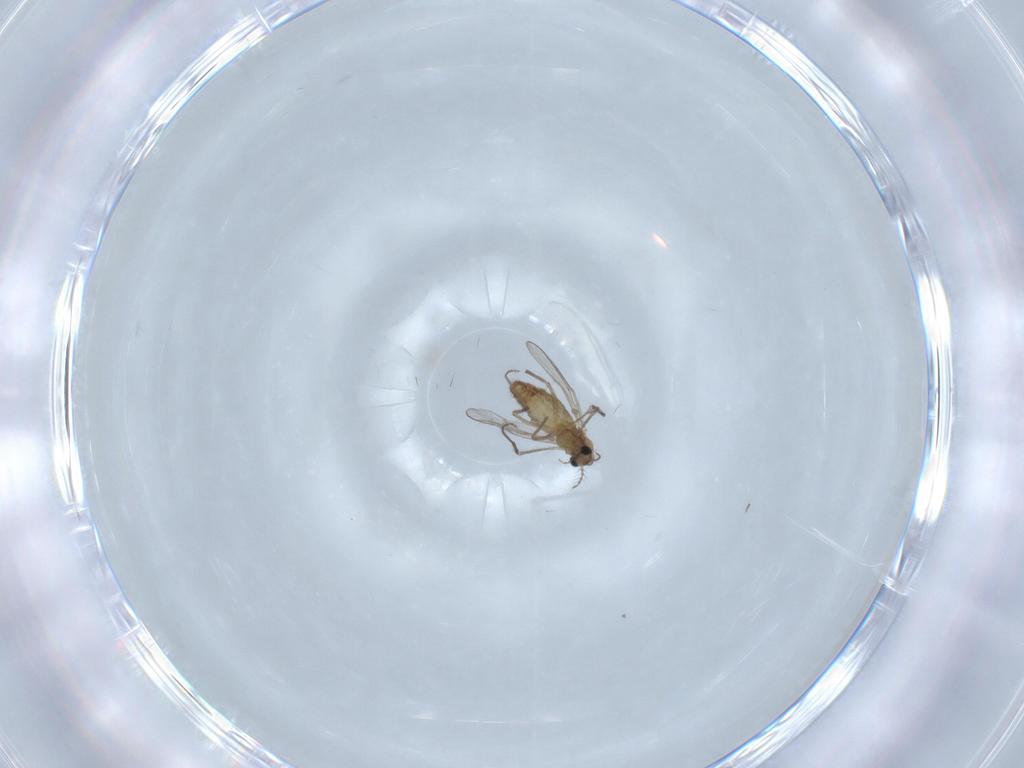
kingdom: Animalia
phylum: Arthropoda
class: Insecta
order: Diptera
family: Chironomidae
